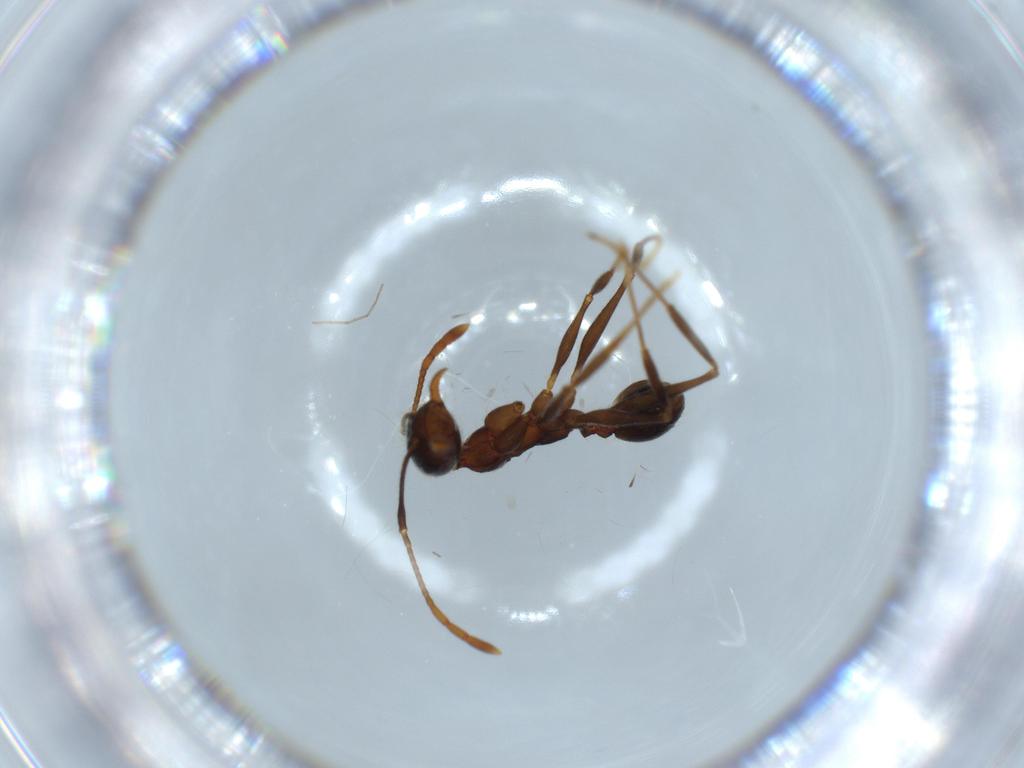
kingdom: Animalia
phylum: Arthropoda
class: Insecta
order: Hymenoptera
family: Formicidae
